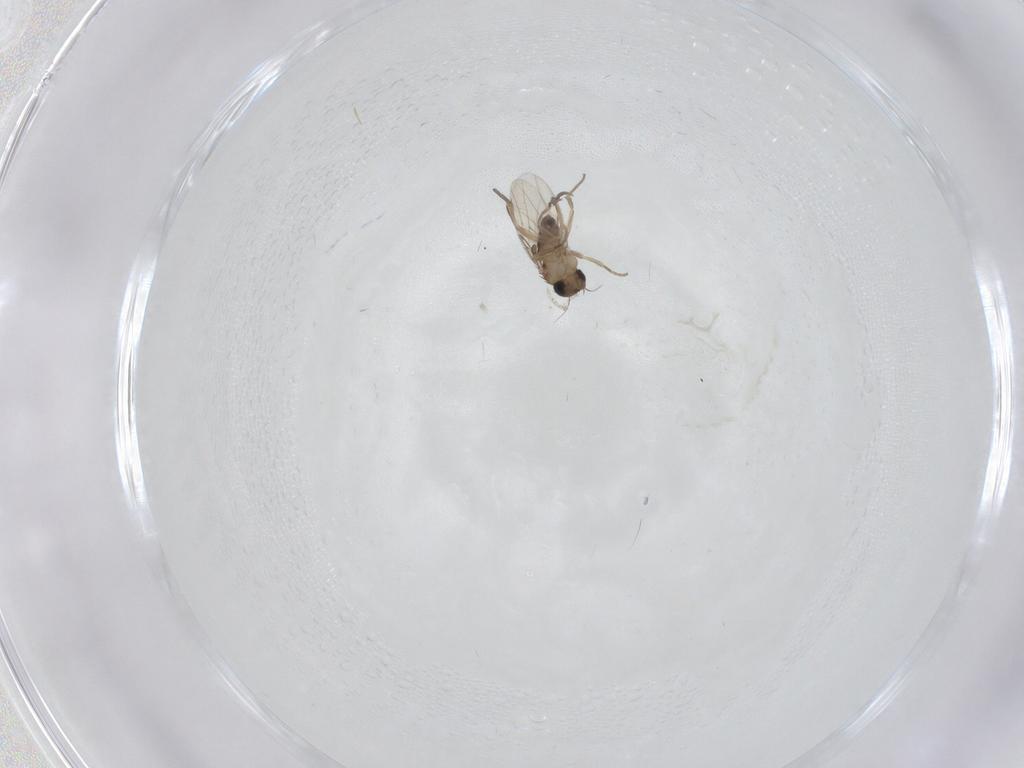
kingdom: Animalia
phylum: Arthropoda
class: Insecta
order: Diptera
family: Phoridae
